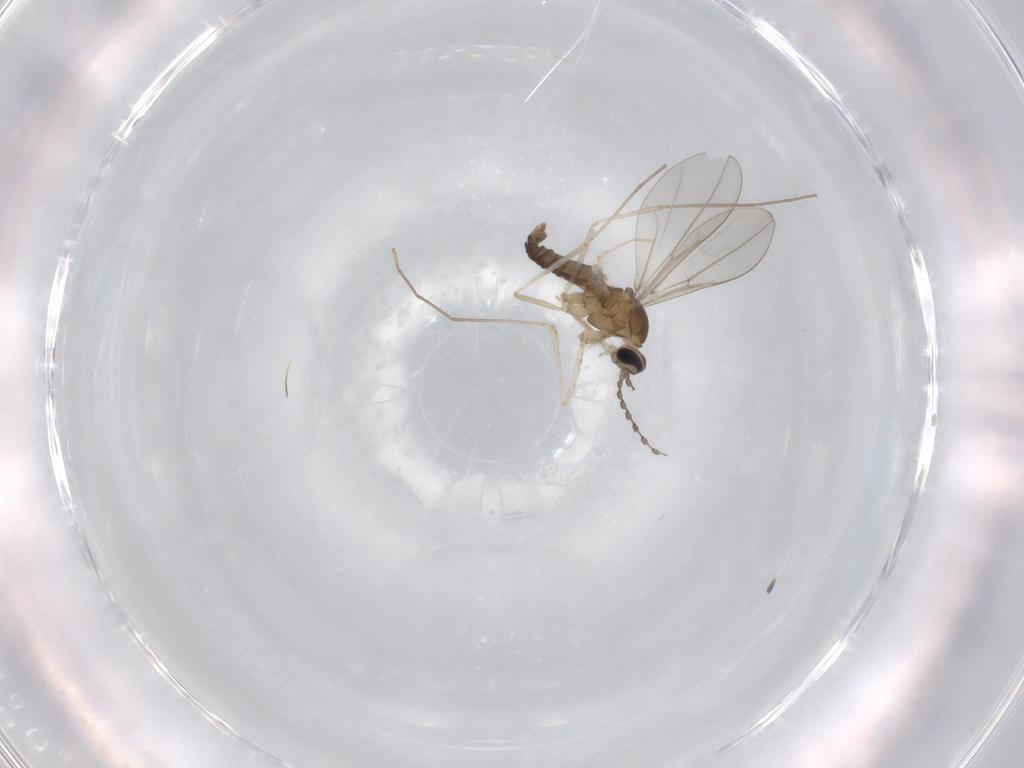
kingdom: Animalia
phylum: Arthropoda
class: Insecta
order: Diptera
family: Cecidomyiidae
